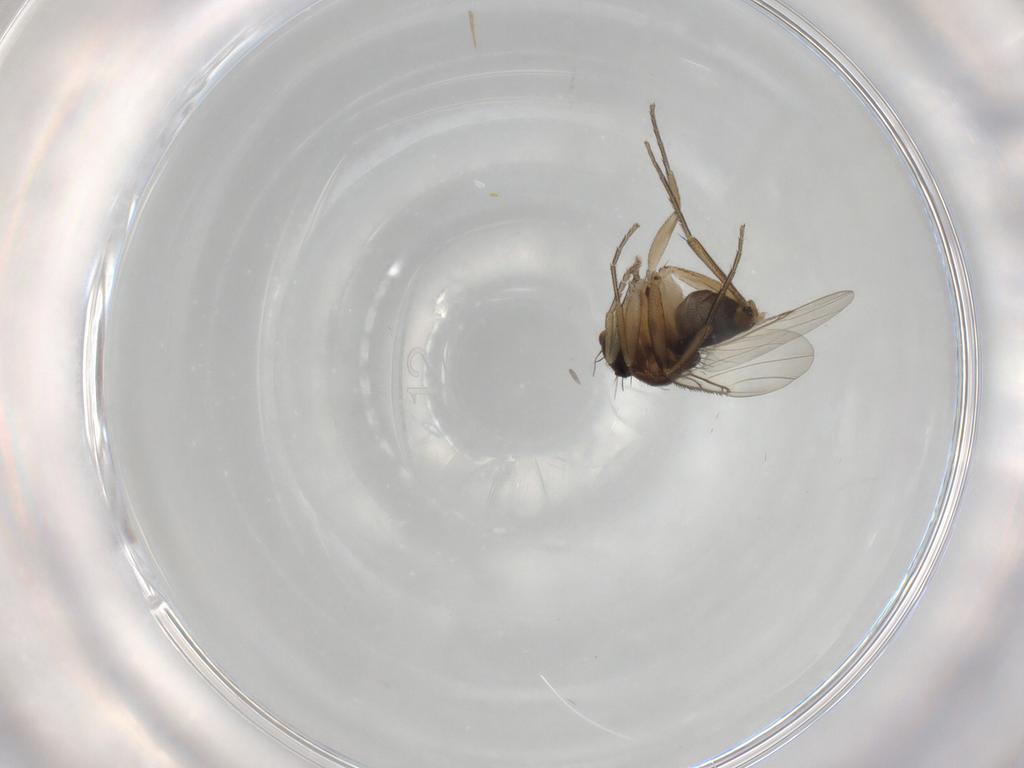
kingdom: Animalia
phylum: Arthropoda
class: Insecta
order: Diptera
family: Phoridae
